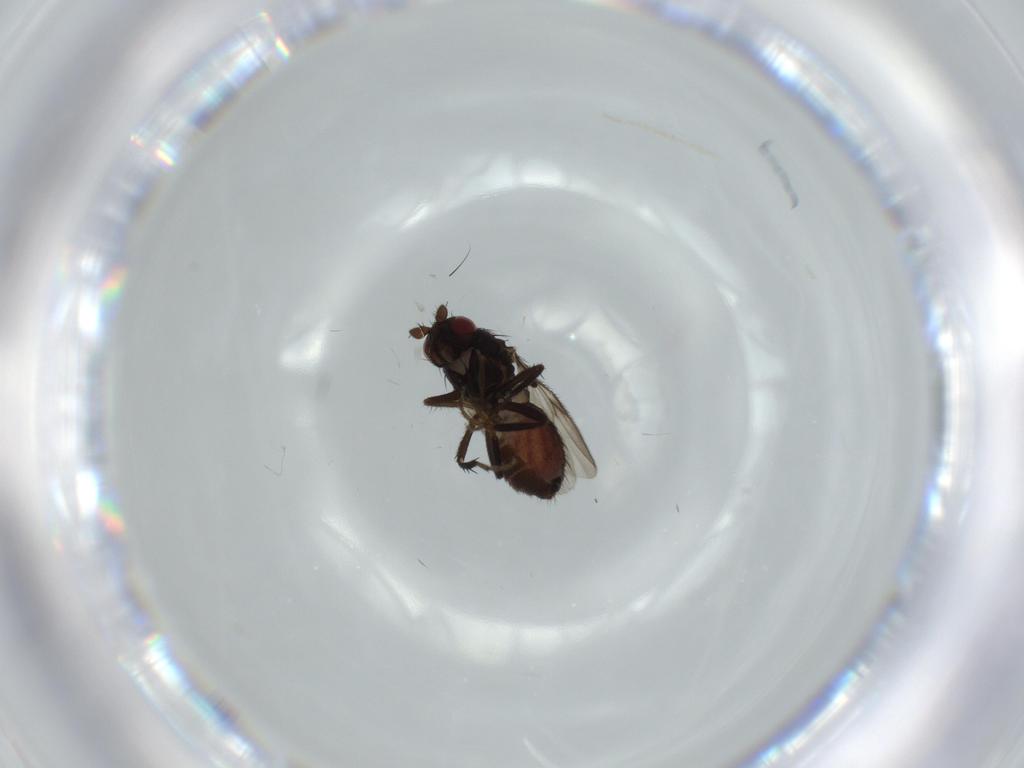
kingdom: Animalia
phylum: Arthropoda
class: Insecta
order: Diptera
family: Sphaeroceridae
